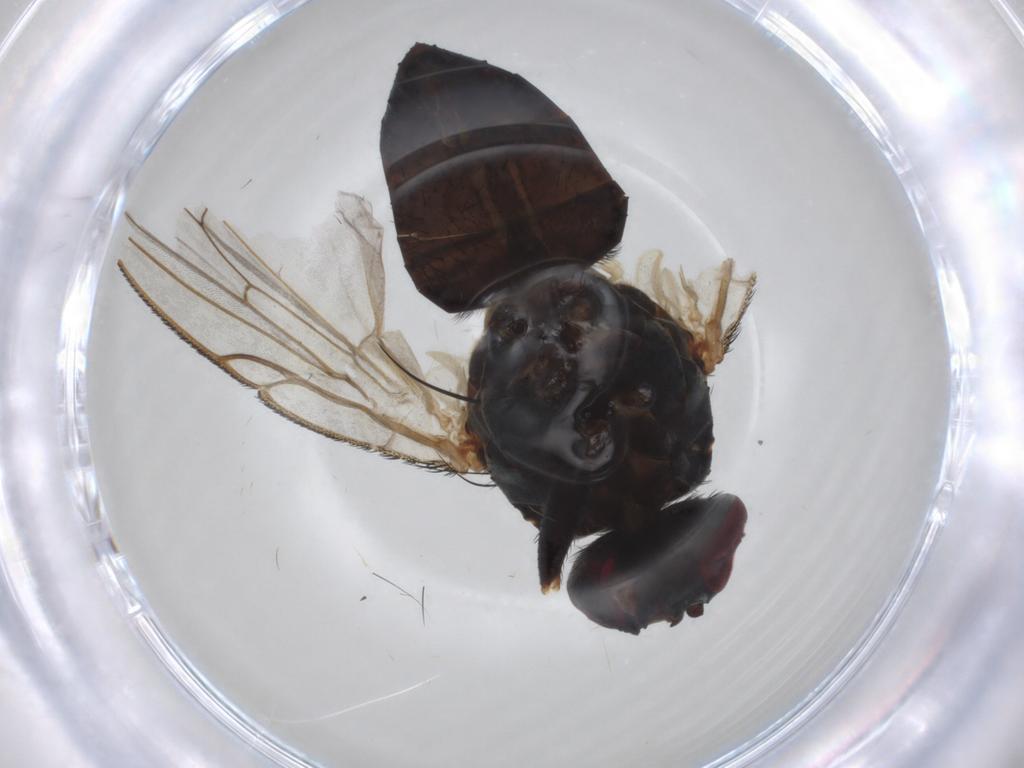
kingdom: Animalia
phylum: Arthropoda
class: Insecta
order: Diptera
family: Muscidae
